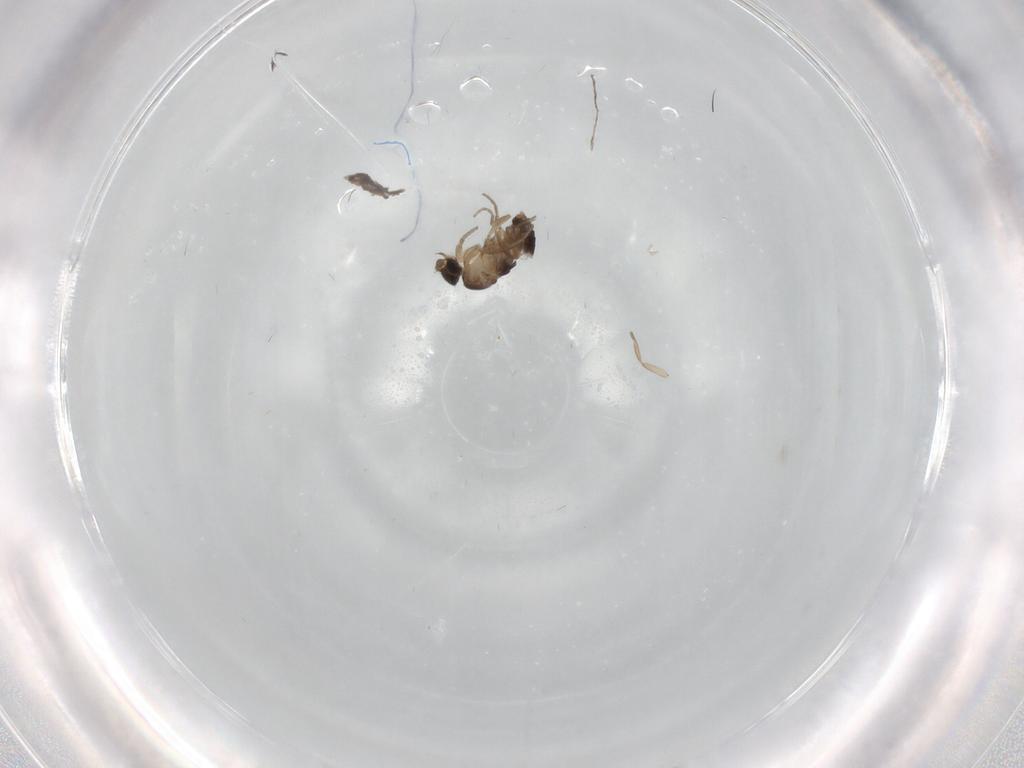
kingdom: Animalia
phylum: Arthropoda
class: Insecta
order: Diptera
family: Phoridae
